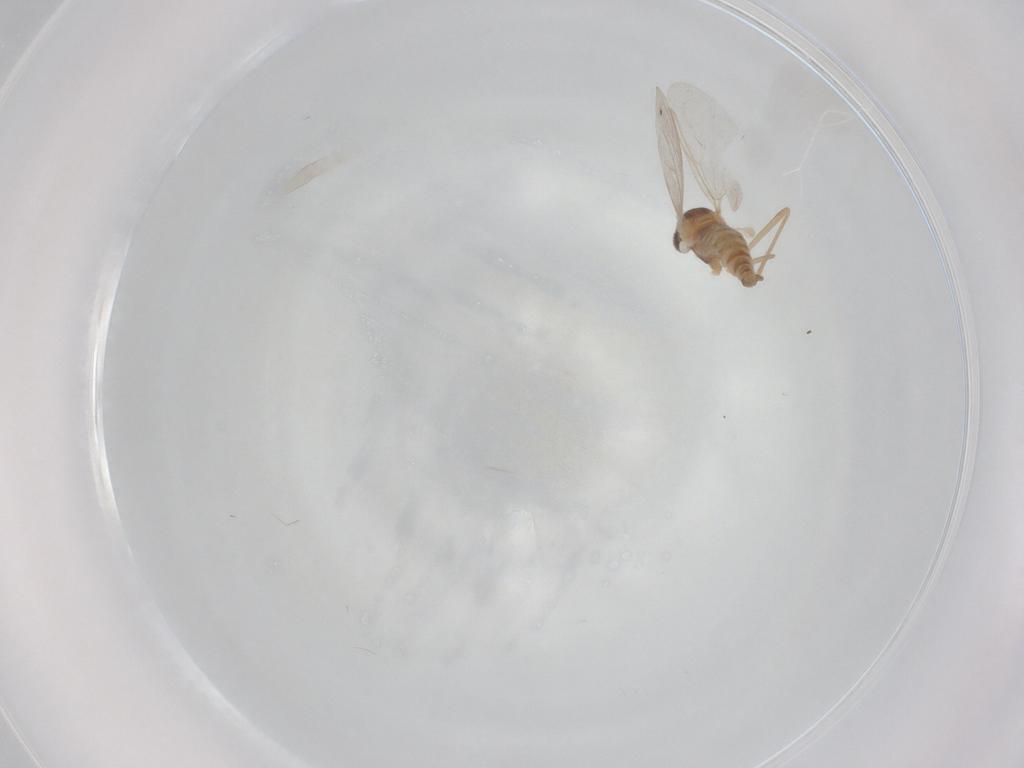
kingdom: Animalia
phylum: Arthropoda
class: Insecta
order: Diptera
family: Cecidomyiidae
